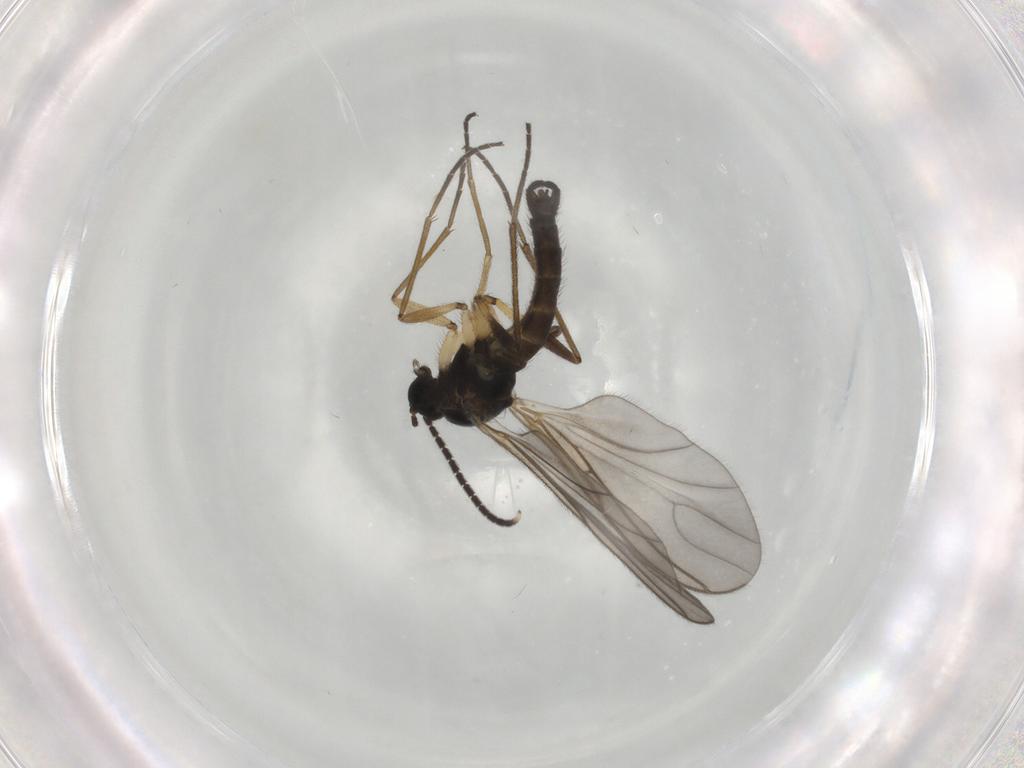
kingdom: Animalia
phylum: Arthropoda
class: Insecta
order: Diptera
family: Sciaridae
